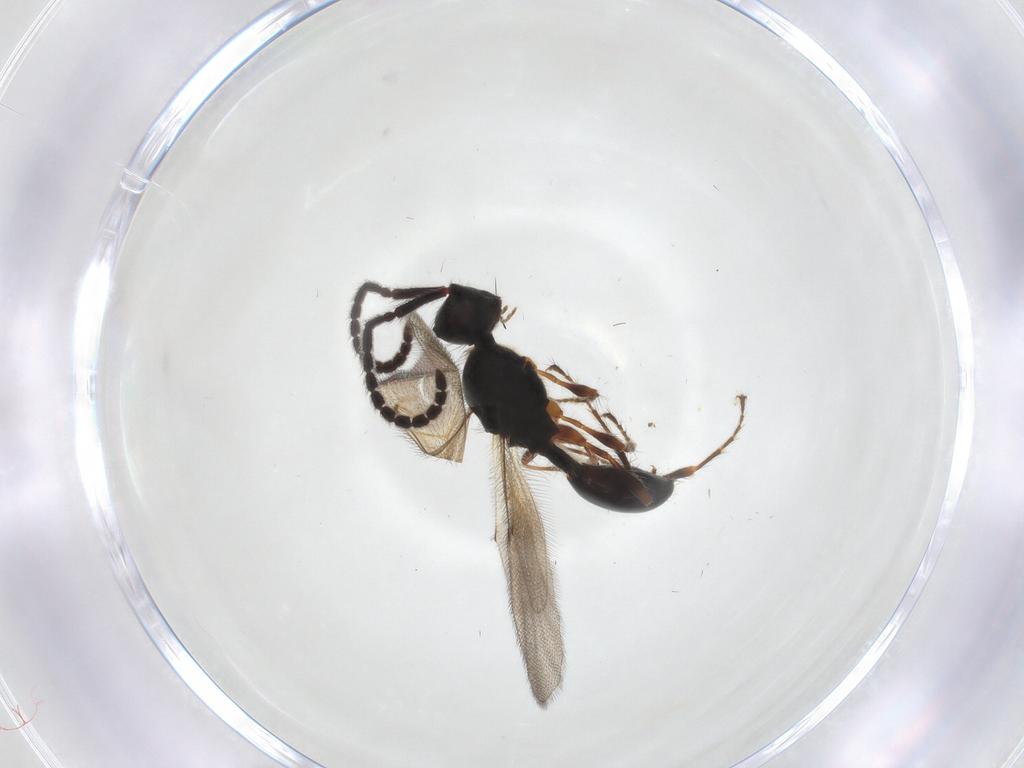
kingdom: Animalia
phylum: Arthropoda
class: Insecta
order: Hymenoptera
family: Diapriidae
